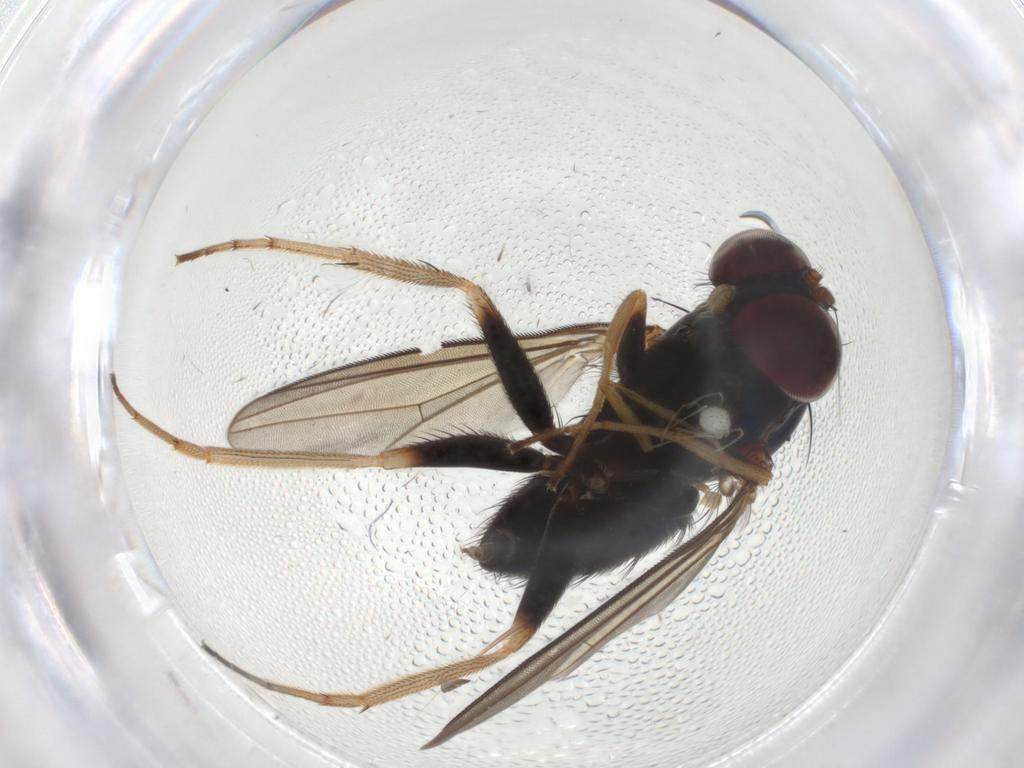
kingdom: Animalia
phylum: Arthropoda
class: Insecta
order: Diptera
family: Dolichopodidae
